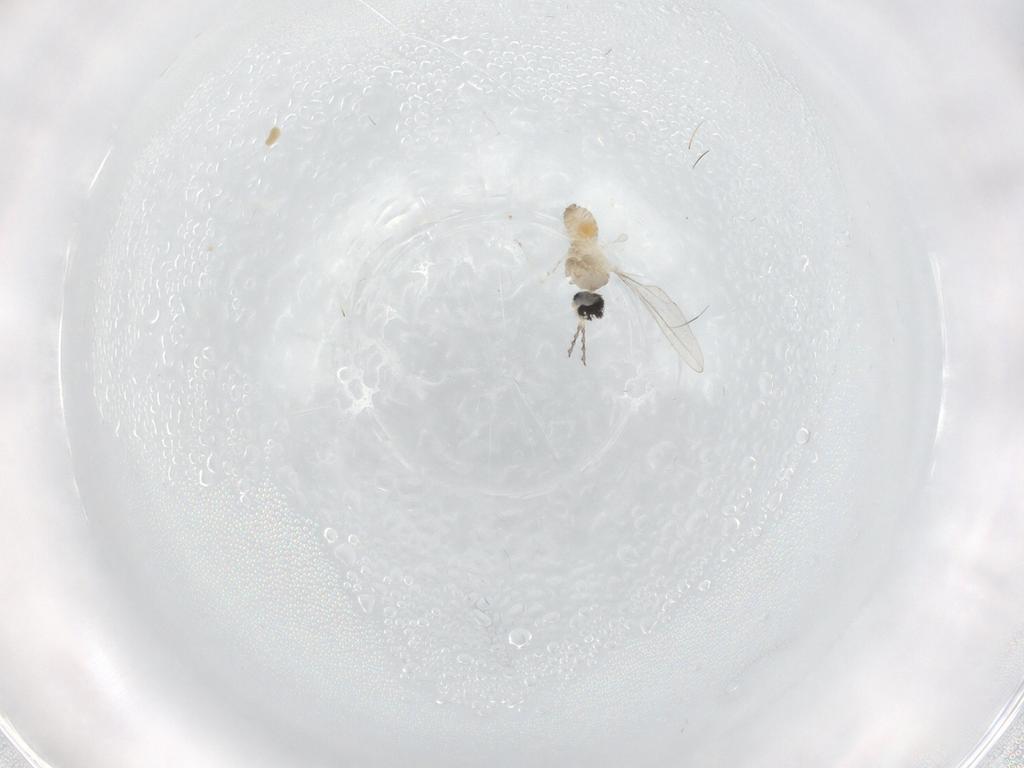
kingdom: Animalia
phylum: Arthropoda
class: Insecta
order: Diptera
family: Cecidomyiidae
